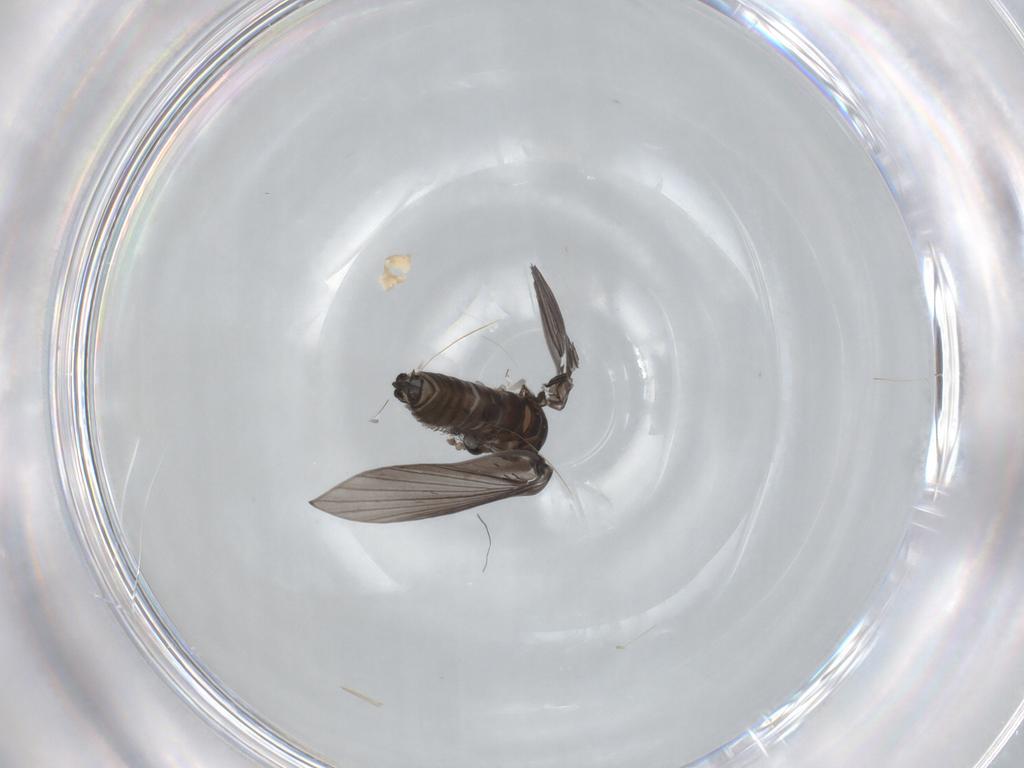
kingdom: Animalia
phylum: Arthropoda
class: Insecta
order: Diptera
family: Psychodidae
